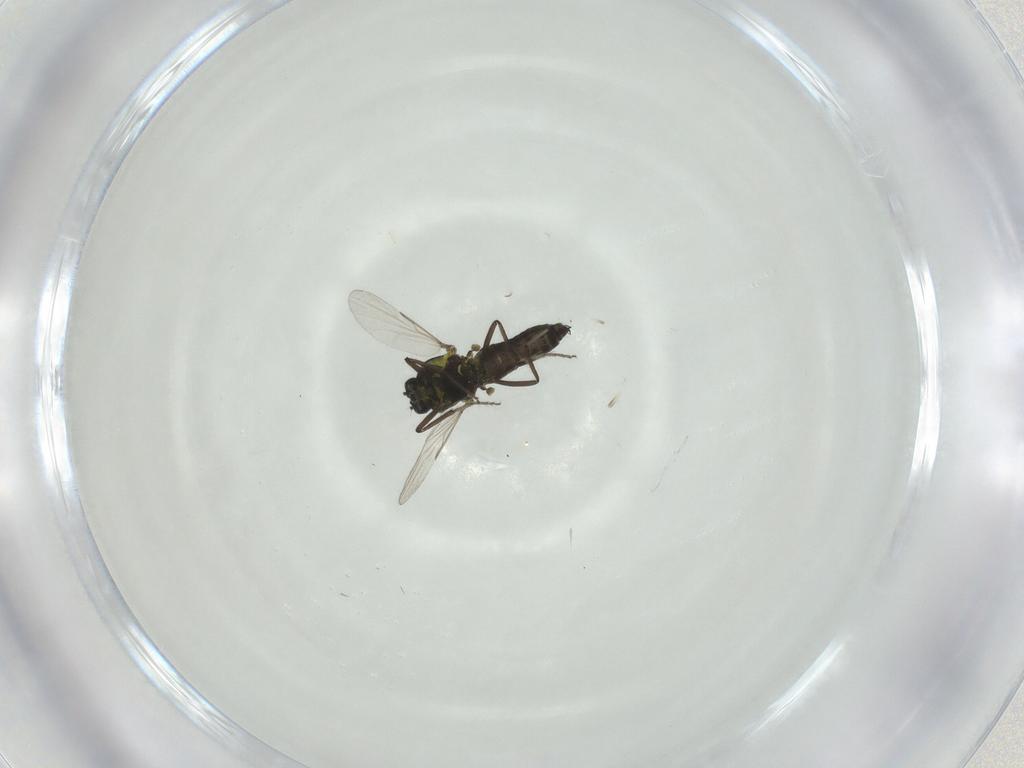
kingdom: Animalia
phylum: Arthropoda
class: Insecta
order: Diptera
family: Ceratopogonidae
